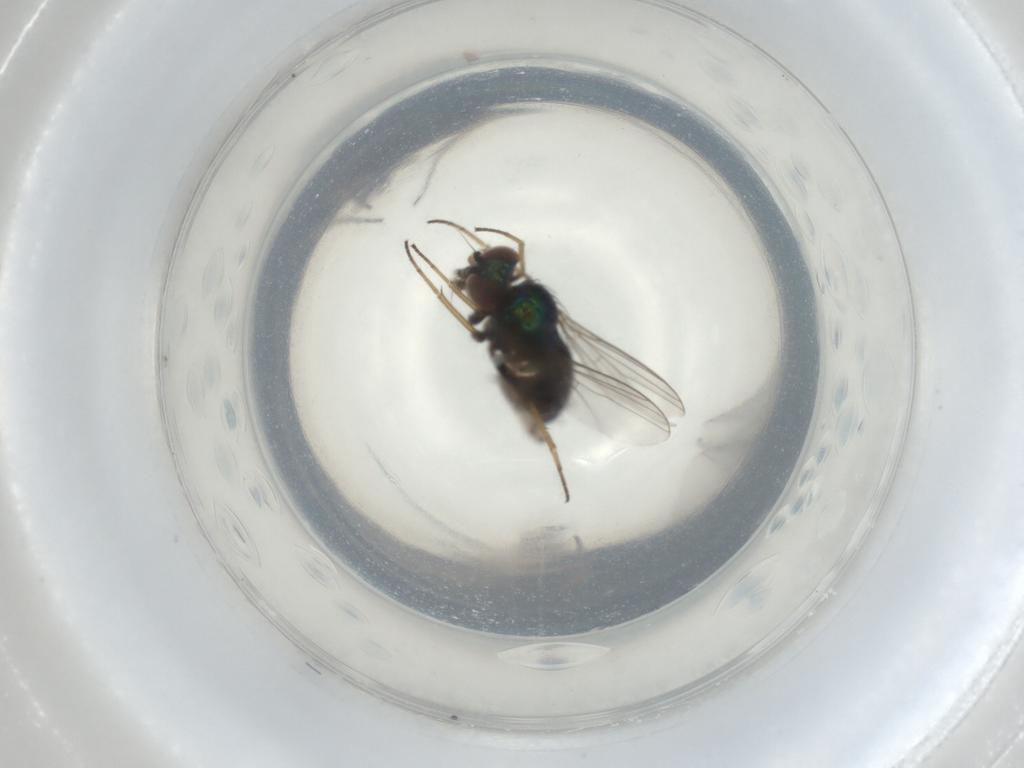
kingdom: Animalia
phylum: Arthropoda
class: Insecta
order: Diptera
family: Dolichopodidae
